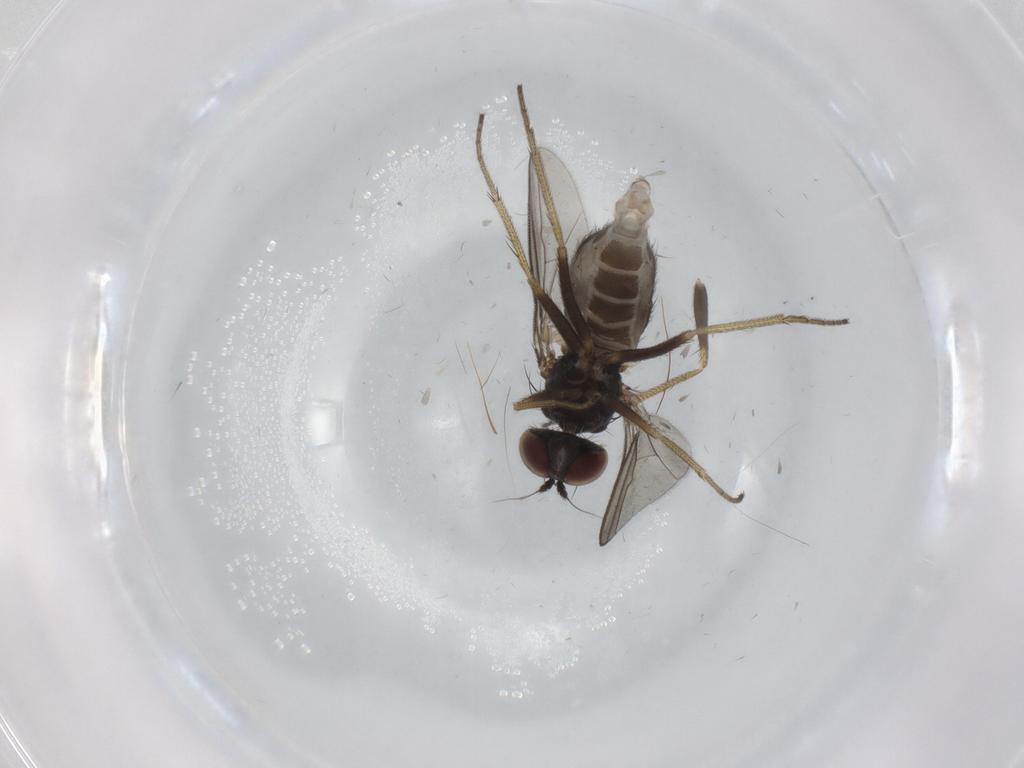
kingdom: Animalia
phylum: Arthropoda
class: Insecta
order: Diptera
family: Dolichopodidae
